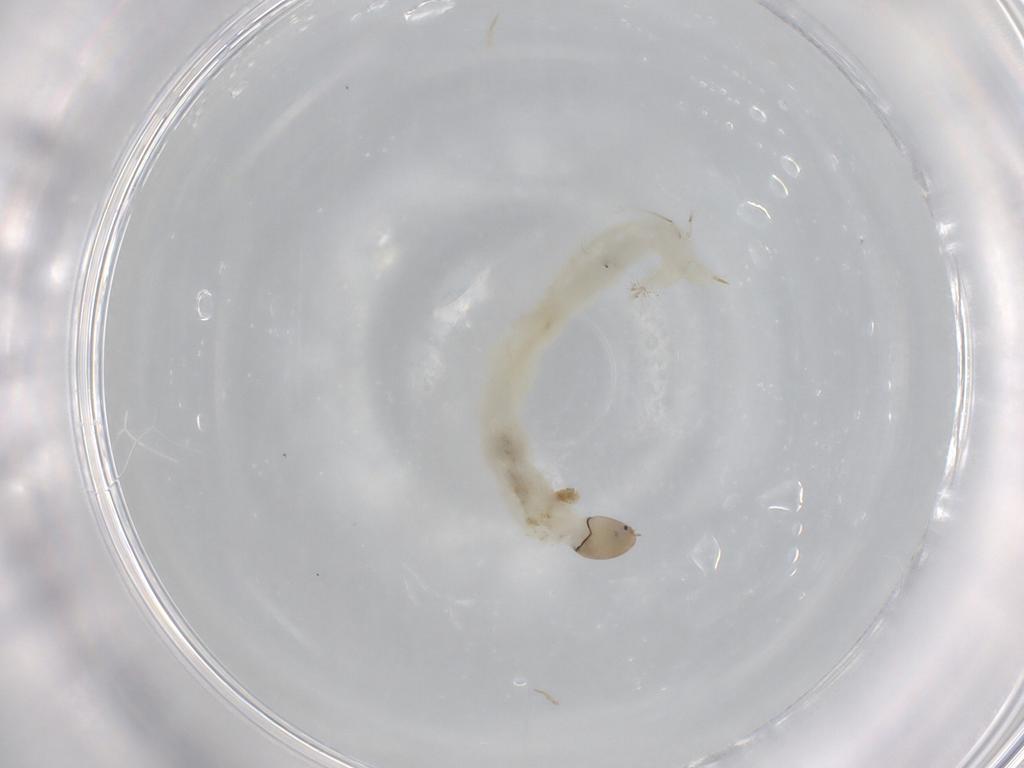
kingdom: Animalia
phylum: Arthropoda
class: Insecta
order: Diptera
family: Chironomidae
